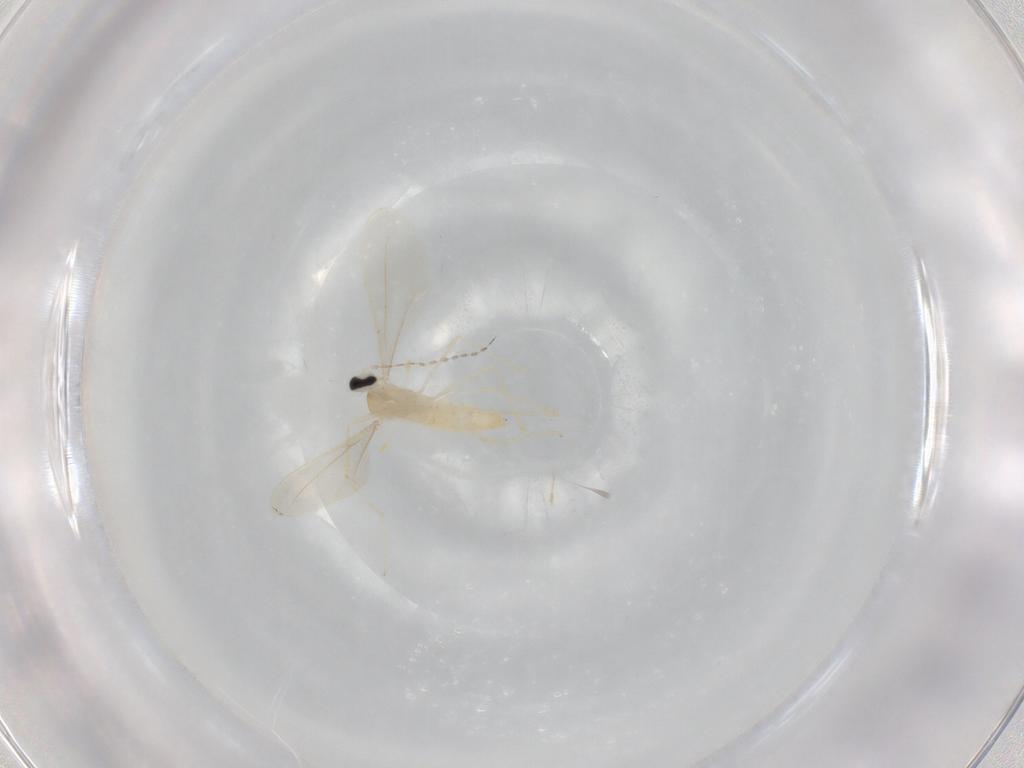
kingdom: Animalia
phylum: Arthropoda
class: Insecta
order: Diptera
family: Cecidomyiidae
